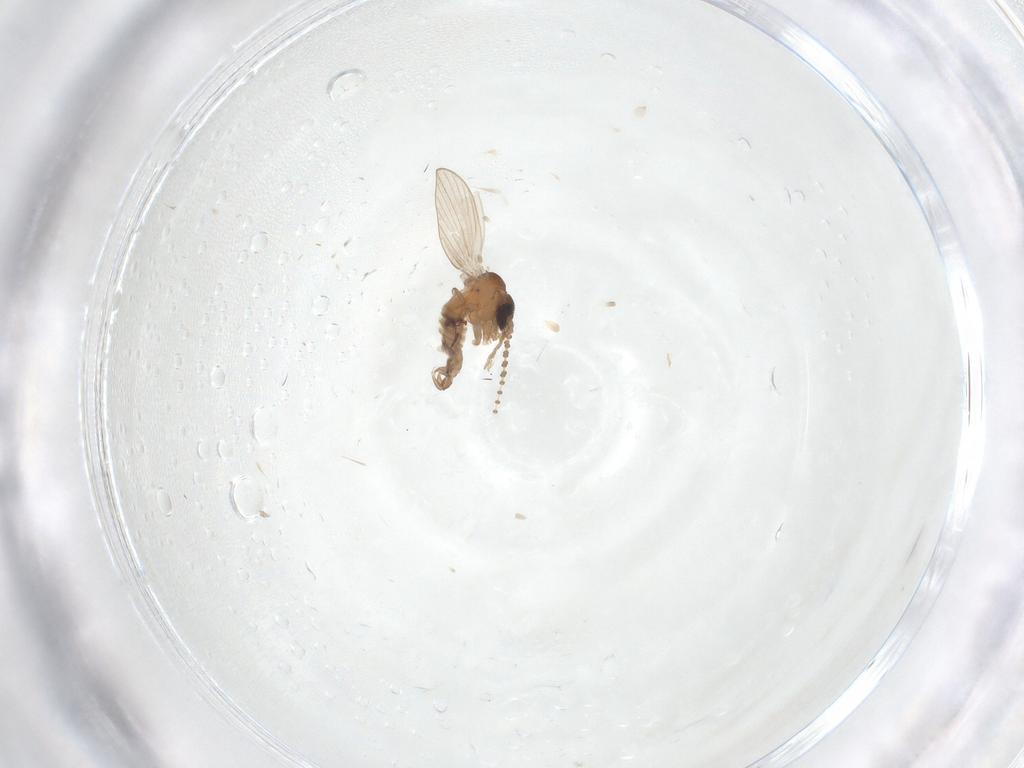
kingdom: Animalia
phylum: Arthropoda
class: Insecta
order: Diptera
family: Psychodidae
